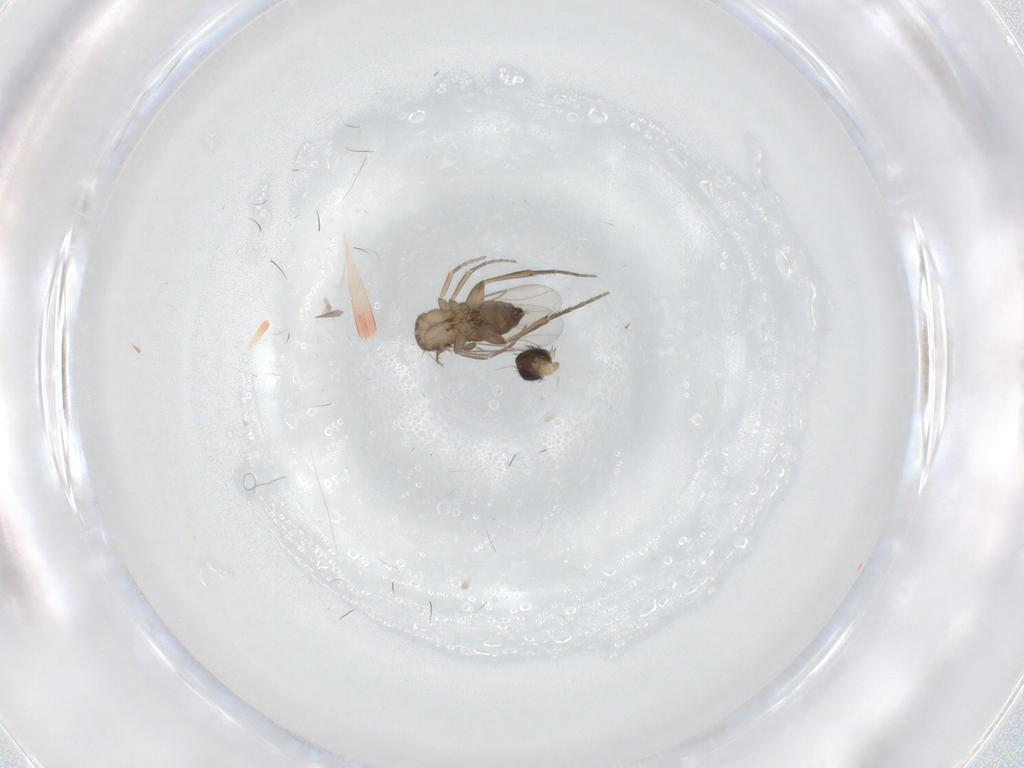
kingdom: Animalia
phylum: Arthropoda
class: Insecta
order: Diptera
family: Phoridae
